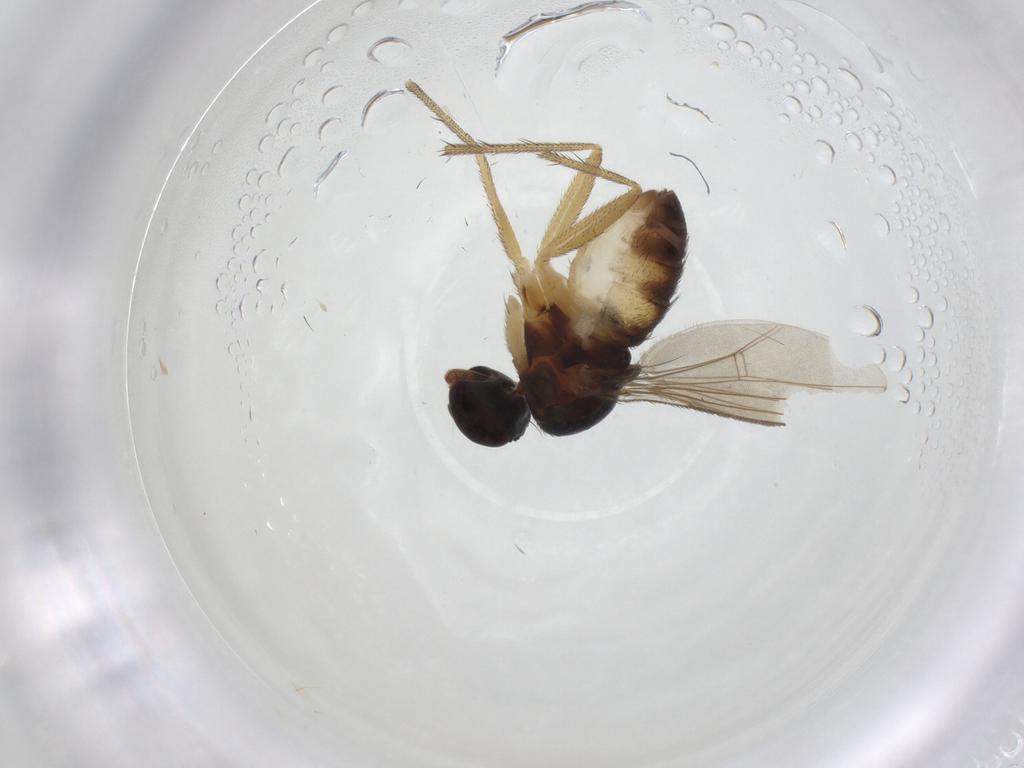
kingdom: Animalia
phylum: Arthropoda
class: Insecta
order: Diptera
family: Dolichopodidae
